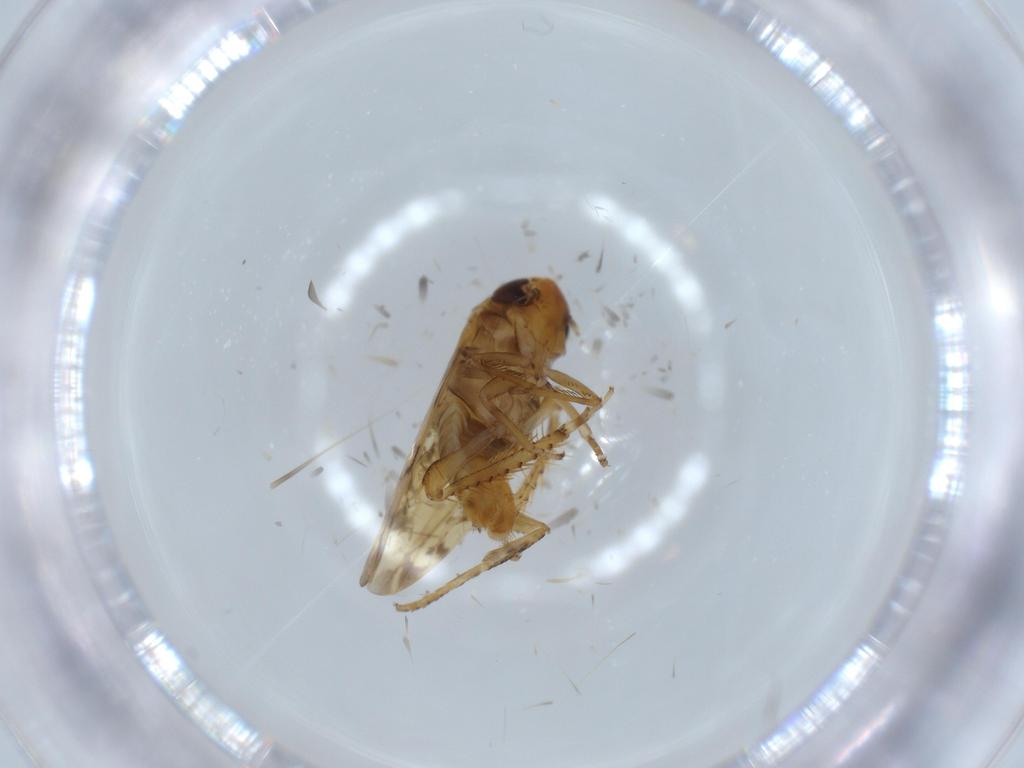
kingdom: Animalia
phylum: Arthropoda
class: Insecta
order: Hemiptera
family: Cicadellidae
